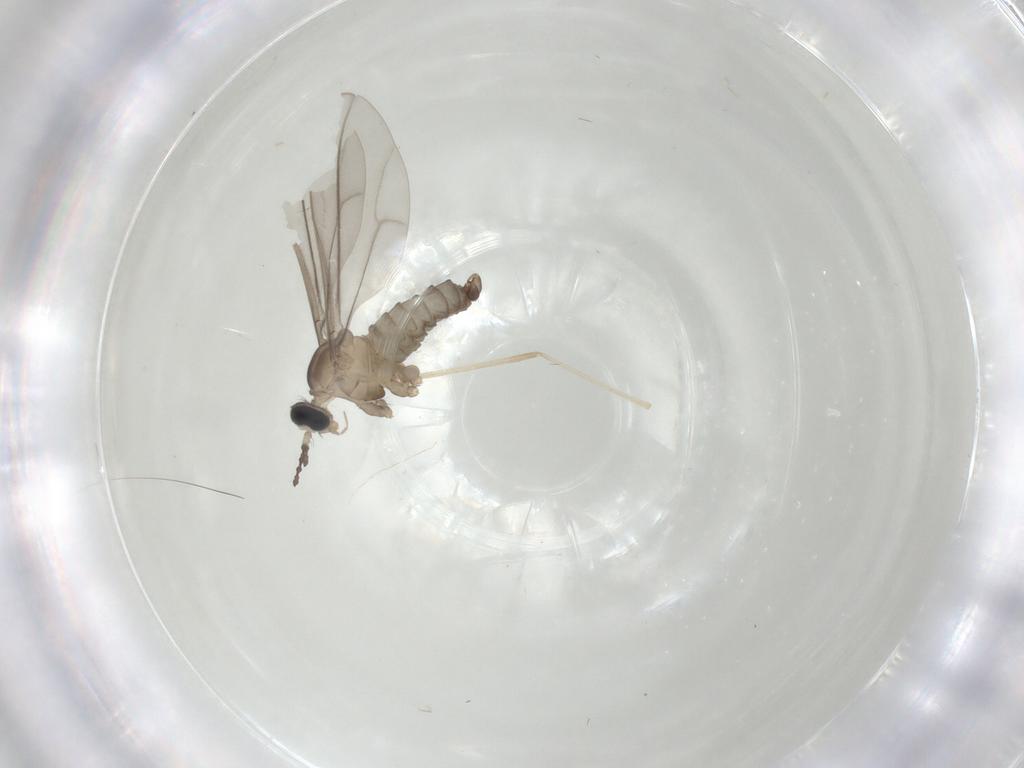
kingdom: Animalia
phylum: Arthropoda
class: Insecta
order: Diptera
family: Cecidomyiidae
